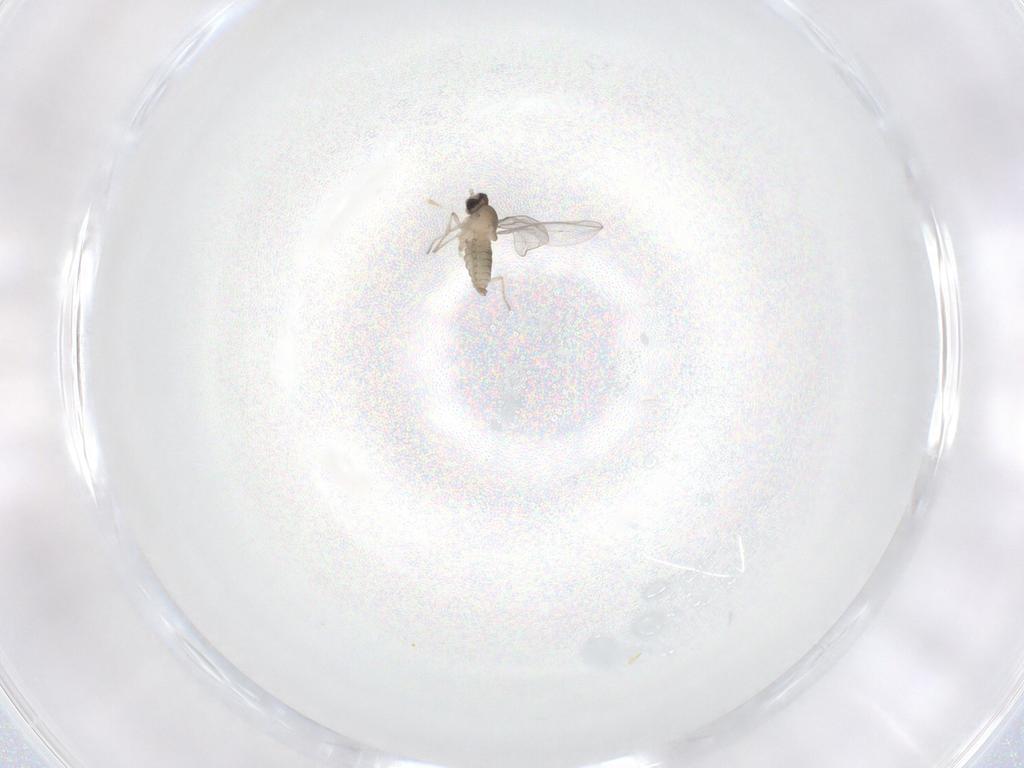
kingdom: Animalia
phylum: Arthropoda
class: Insecta
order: Diptera
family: Cecidomyiidae
